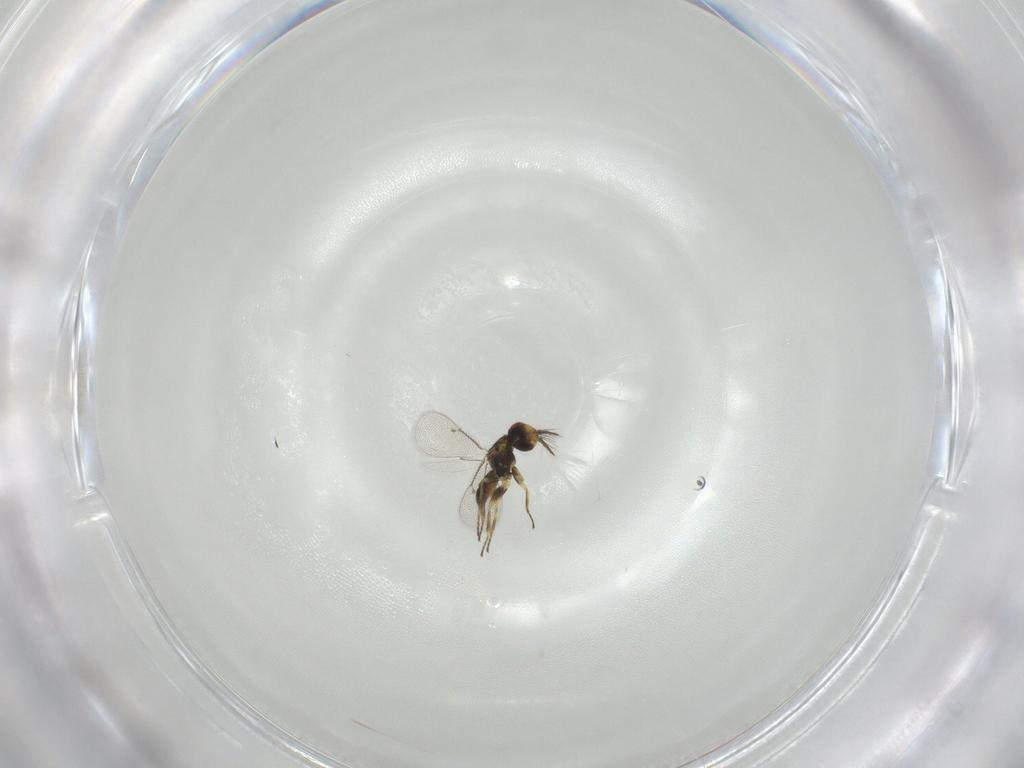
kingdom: Animalia
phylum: Arthropoda
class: Insecta
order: Hymenoptera
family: Eulophidae
